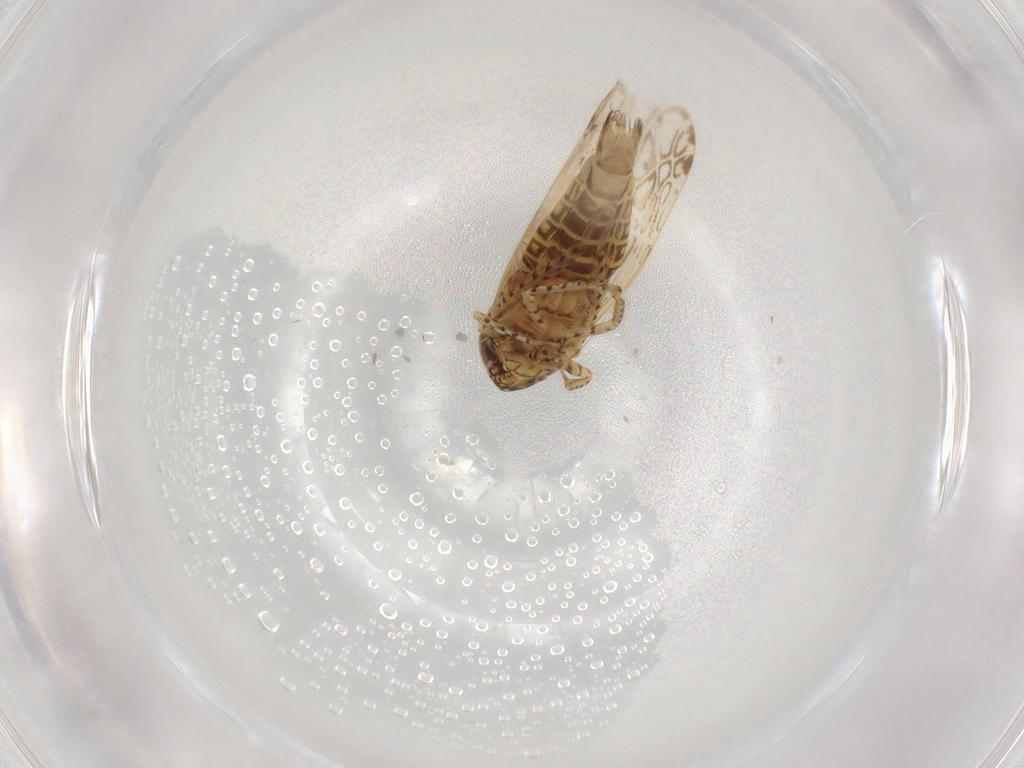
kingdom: Animalia
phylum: Arthropoda
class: Insecta
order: Hemiptera
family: Cicadellidae
